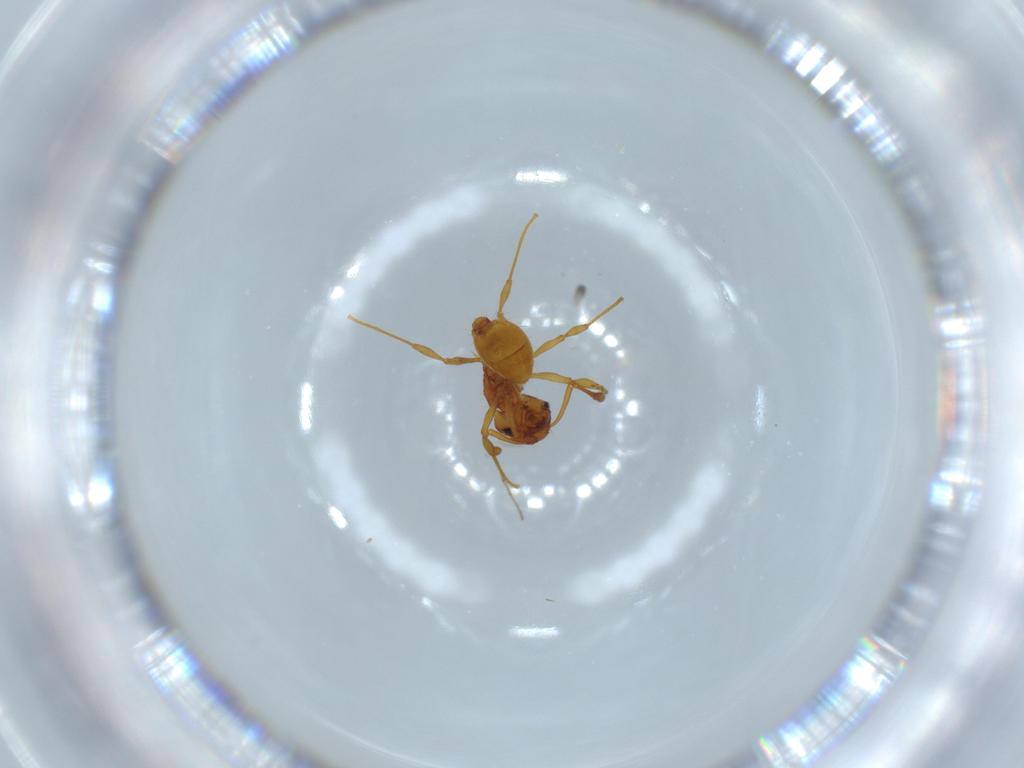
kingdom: Animalia
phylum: Arthropoda
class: Insecta
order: Hymenoptera
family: Formicidae
